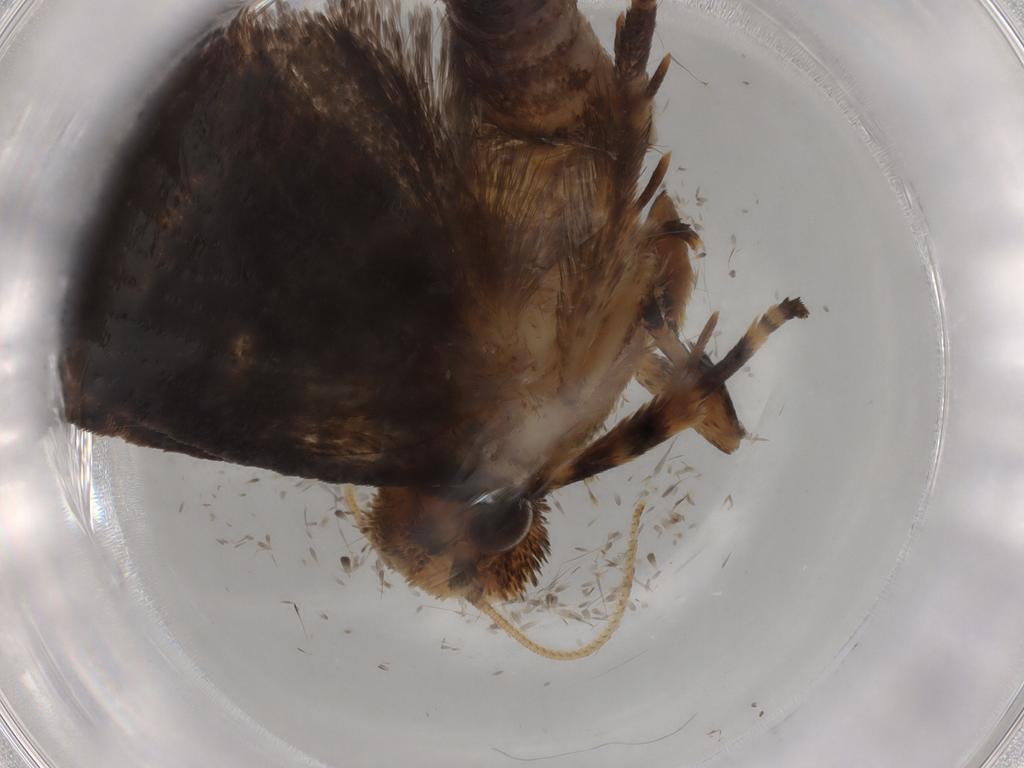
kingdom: Animalia
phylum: Arthropoda
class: Insecta
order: Lepidoptera
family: Tineidae
